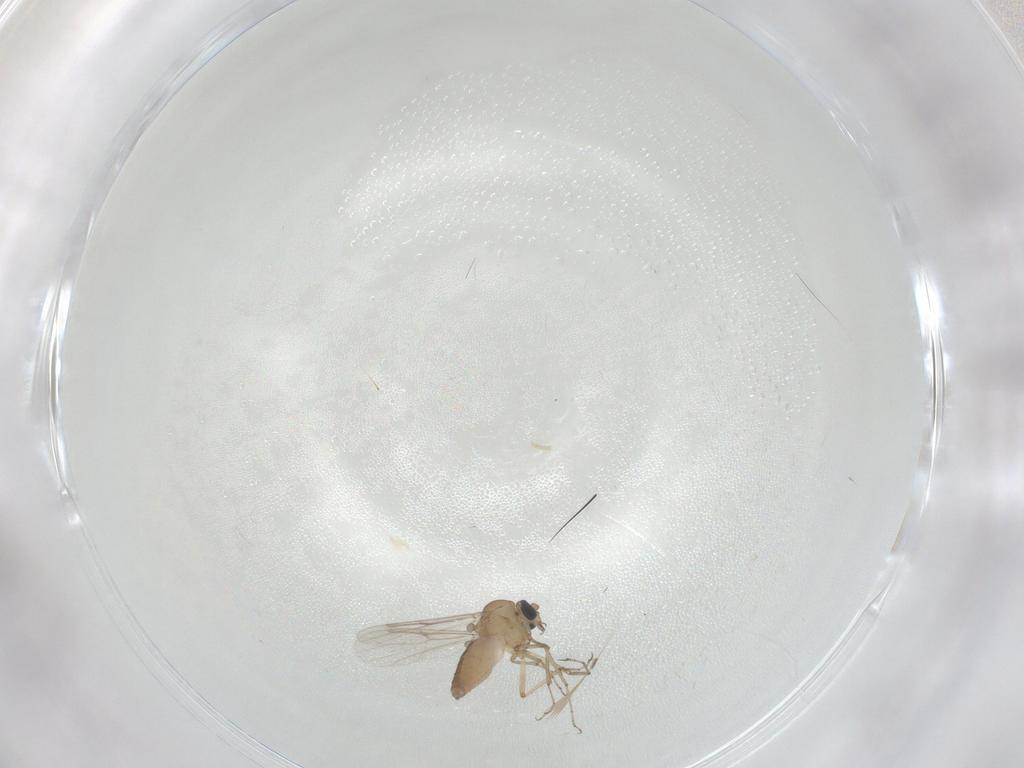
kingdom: Animalia
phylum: Arthropoda
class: Insecta
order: Diptera
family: Ceratopogonidae
